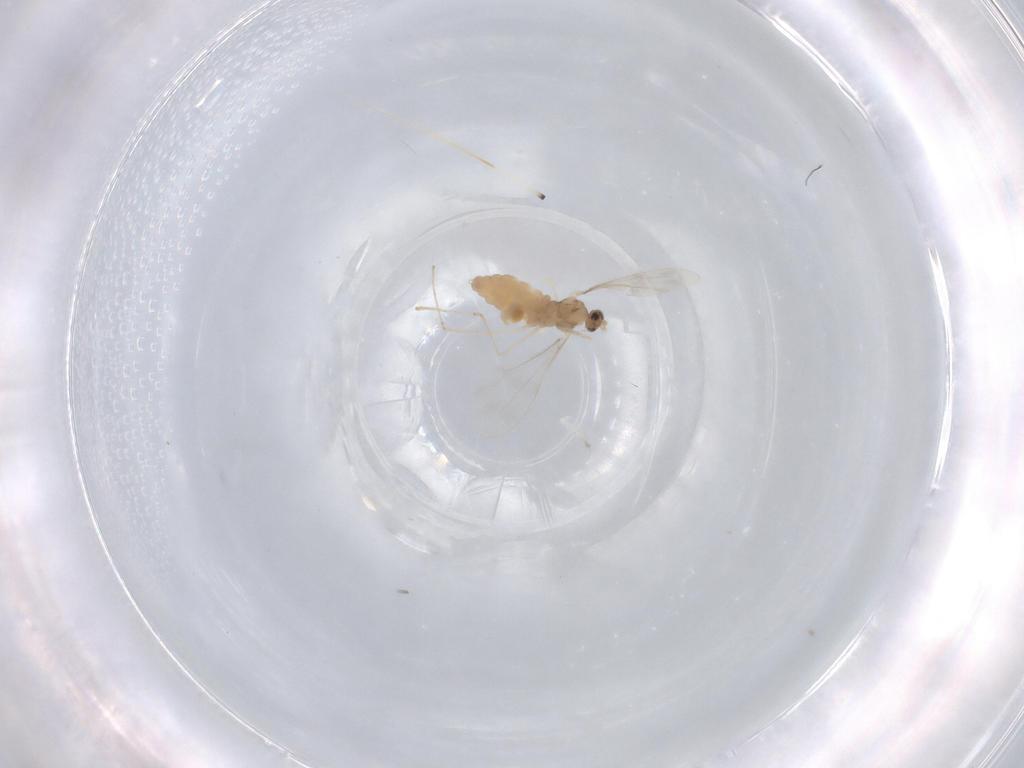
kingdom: Animalia
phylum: Arthropoda
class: Insecta
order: Diptera
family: Cecidomyiidae
